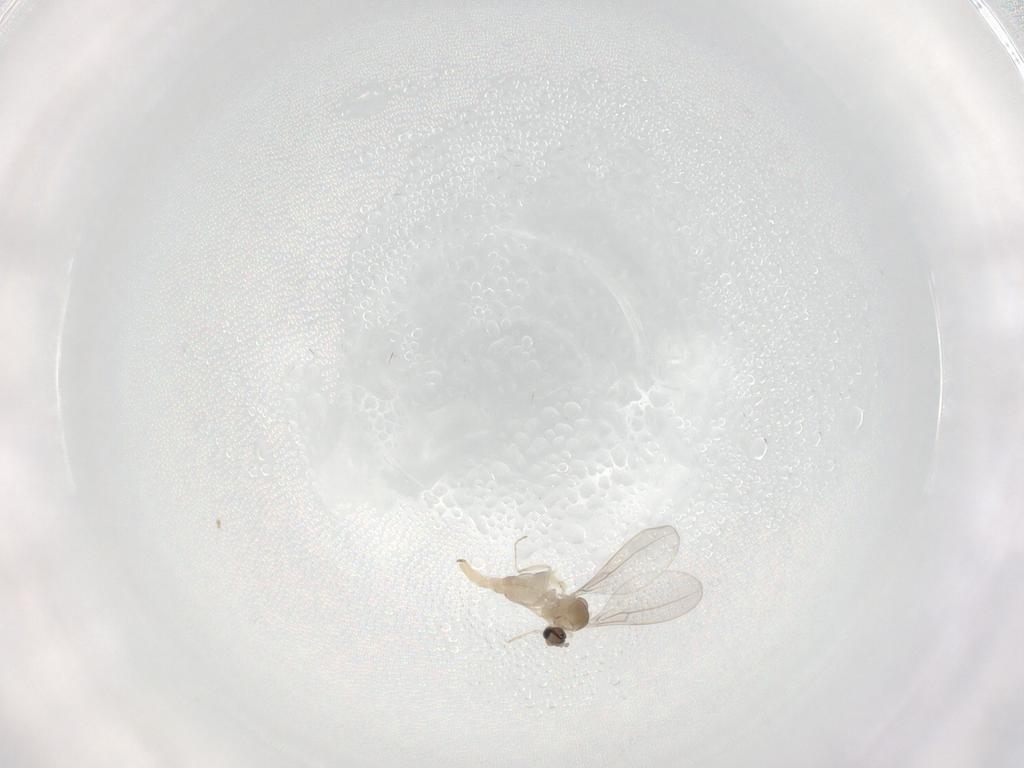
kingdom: Animalia
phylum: Arthropoda
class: Insecta
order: Diptera
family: Cecidomyiidae
